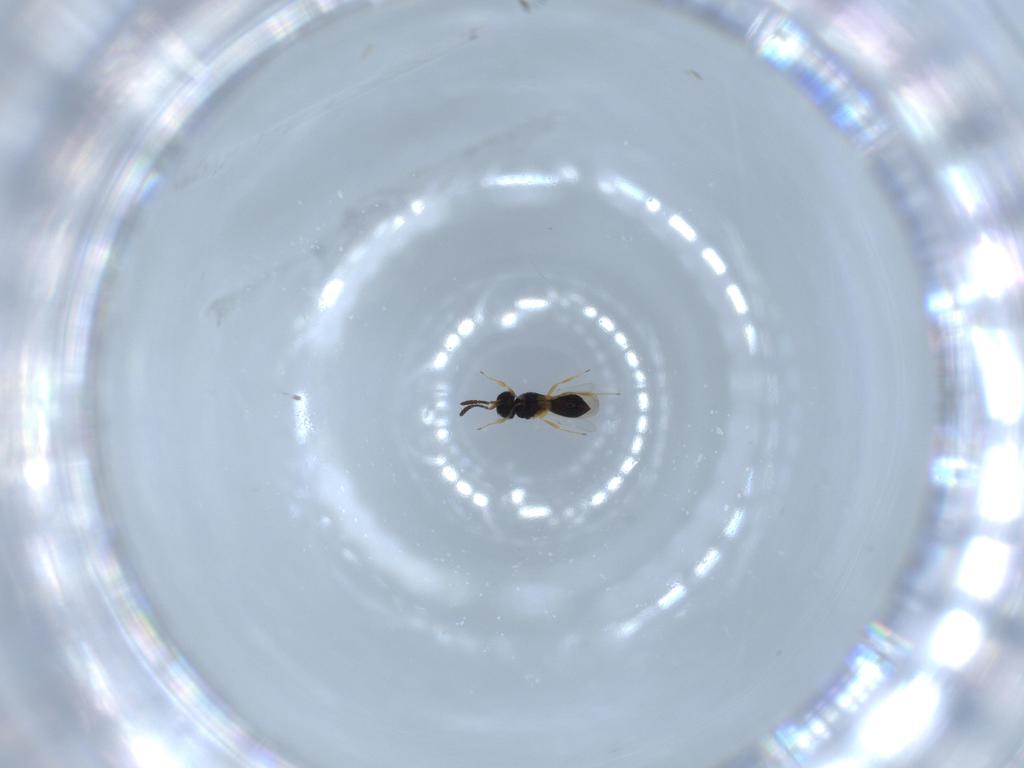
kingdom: Animalia
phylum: Arthropoda
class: Insecta
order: Hymenoptera
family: Scelionidae
